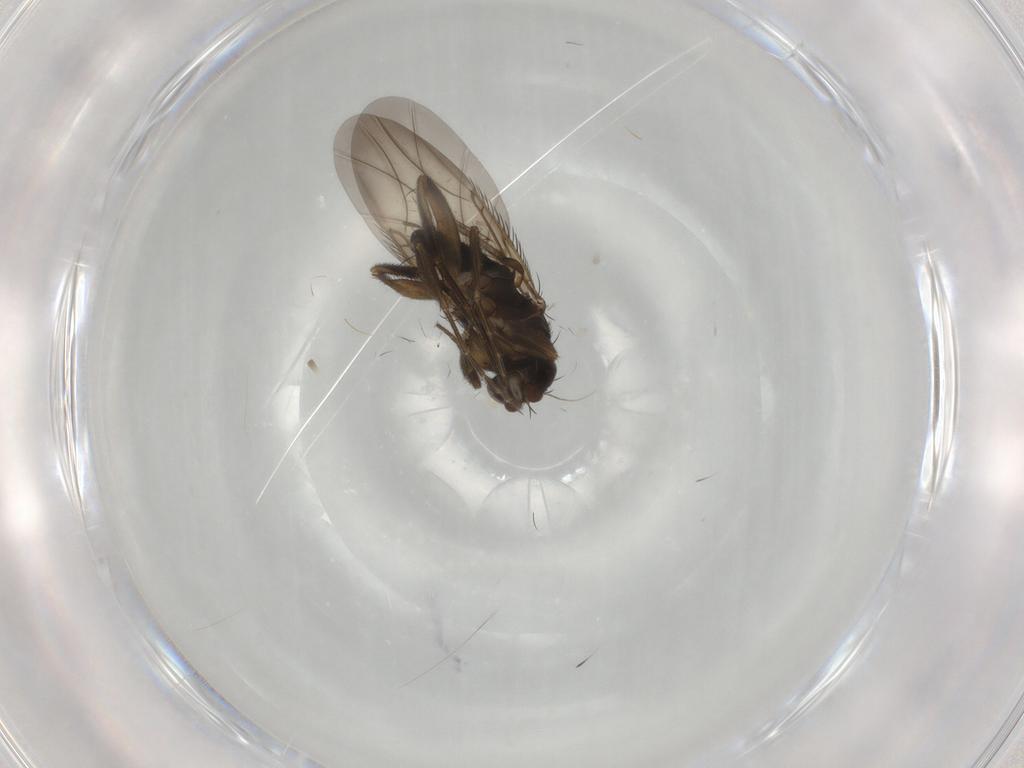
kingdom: Animalia
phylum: Arthropoda
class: Insecta
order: Diptera
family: Phoridae
